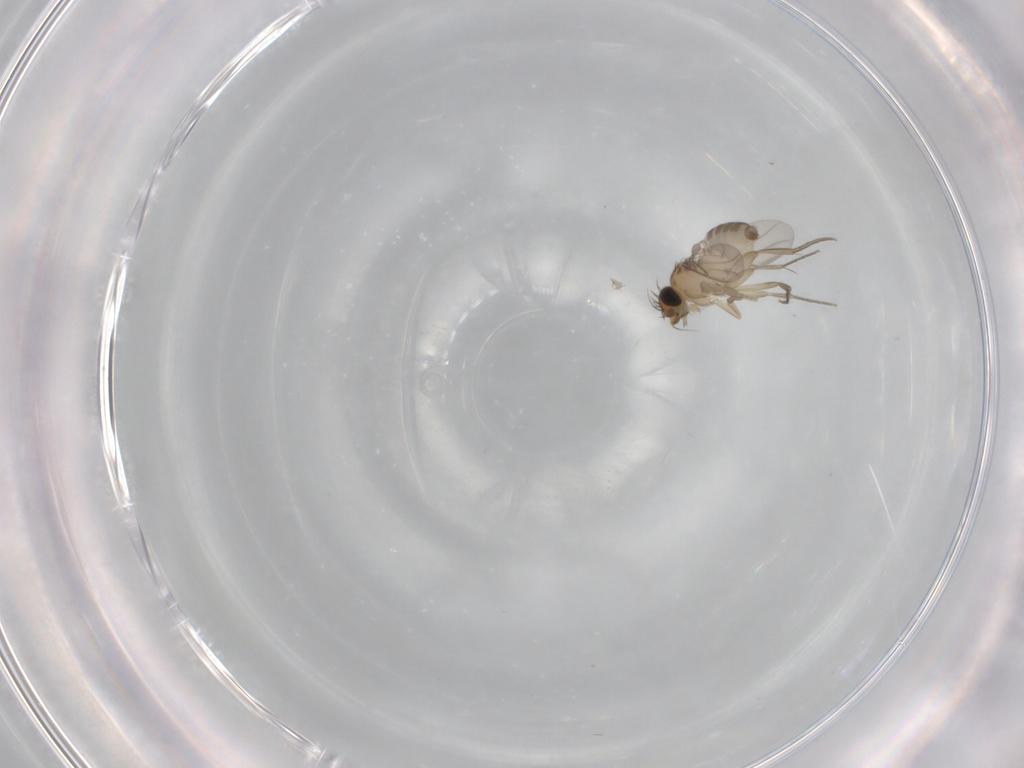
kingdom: Animalia
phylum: Arthropoda
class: Insecta
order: Diptera
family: Phoridae
